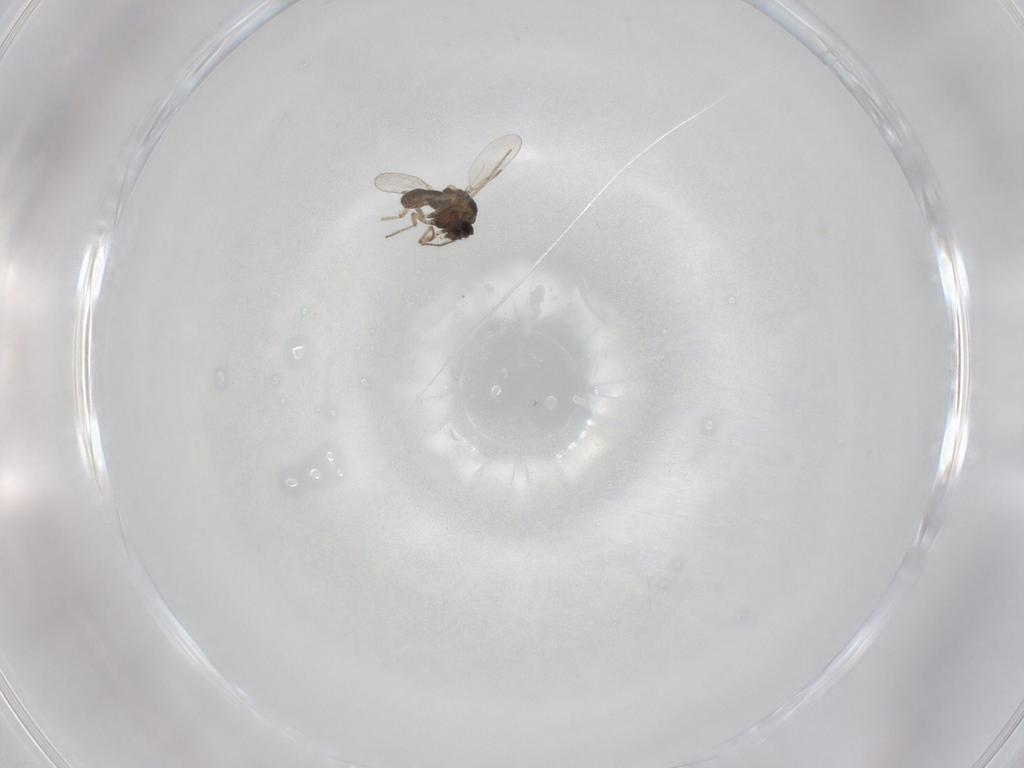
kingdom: Animalia
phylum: Arthropoda
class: Insecta
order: Diptera
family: Ceratopogonidae
